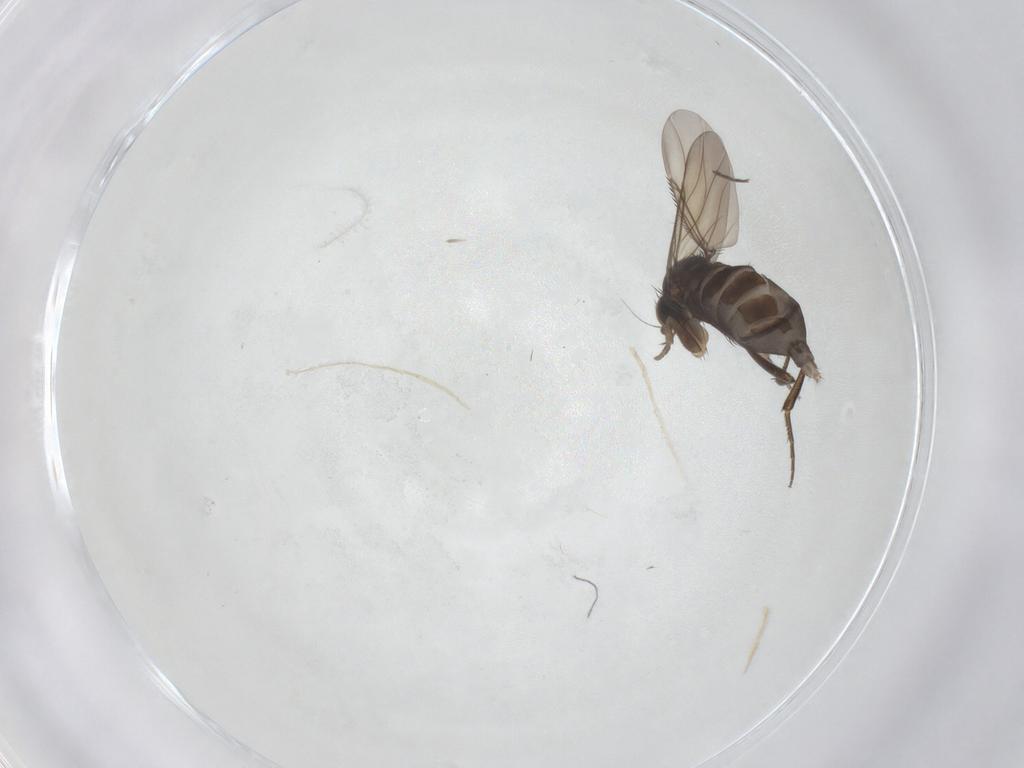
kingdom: Animalia
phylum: Arthropoda
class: Insecta
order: Diptera
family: Phoridae
